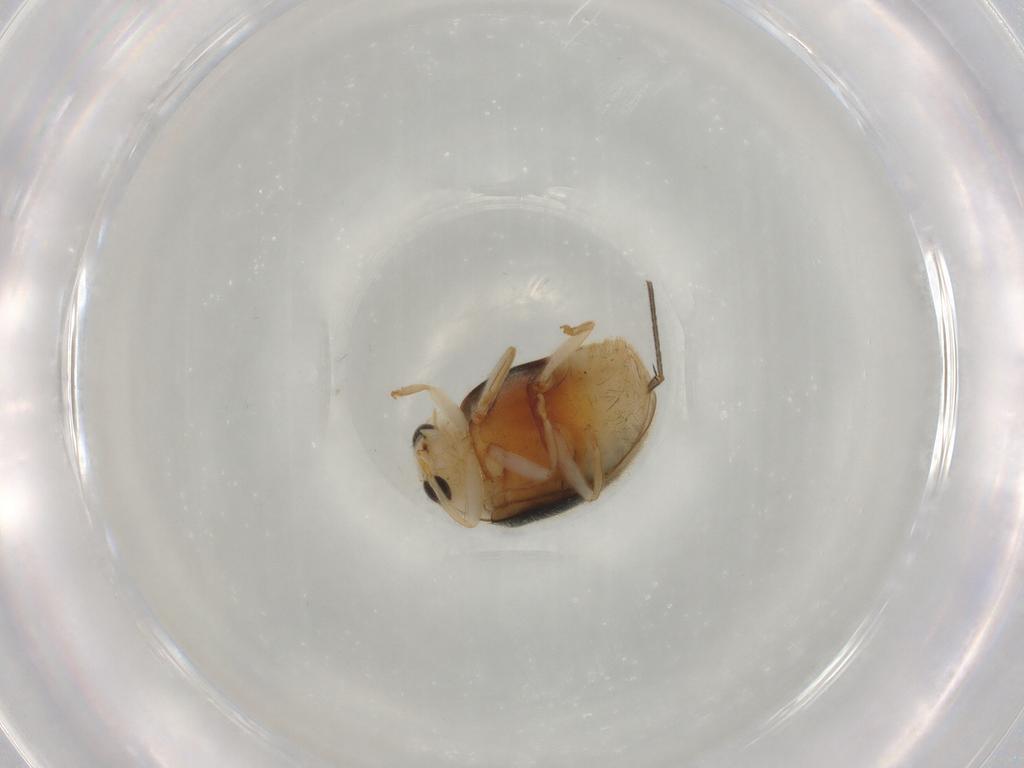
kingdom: Animalia
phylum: Arthropoda
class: Insecta
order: Coleoptera
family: Coccinellidae
